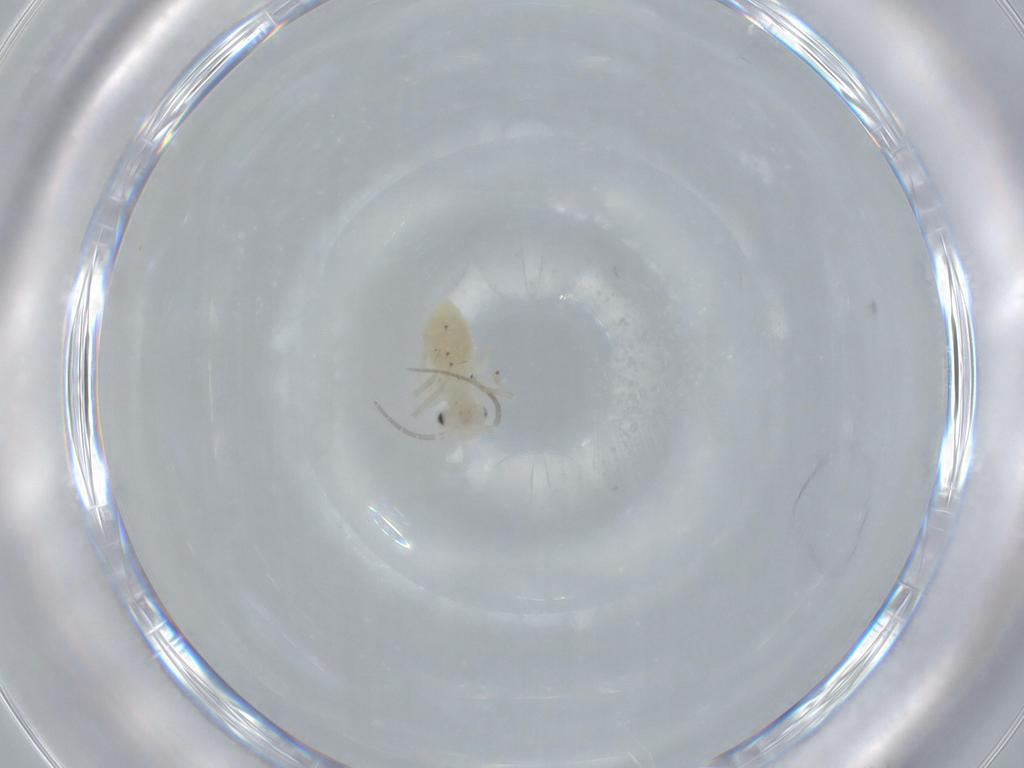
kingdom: Animalia
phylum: Arthropoda
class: Insecta
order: Psocodea
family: Caeciliusidae
